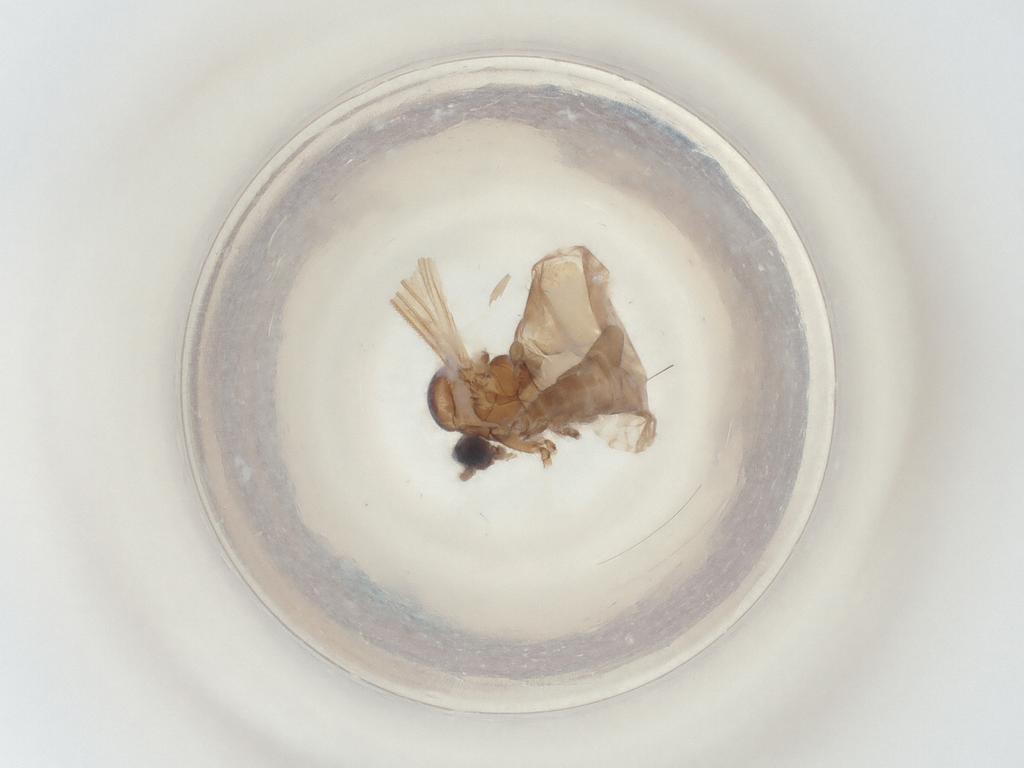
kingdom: Animalia
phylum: Arthropoda
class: Insecta
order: Diptera
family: Sciaridae
